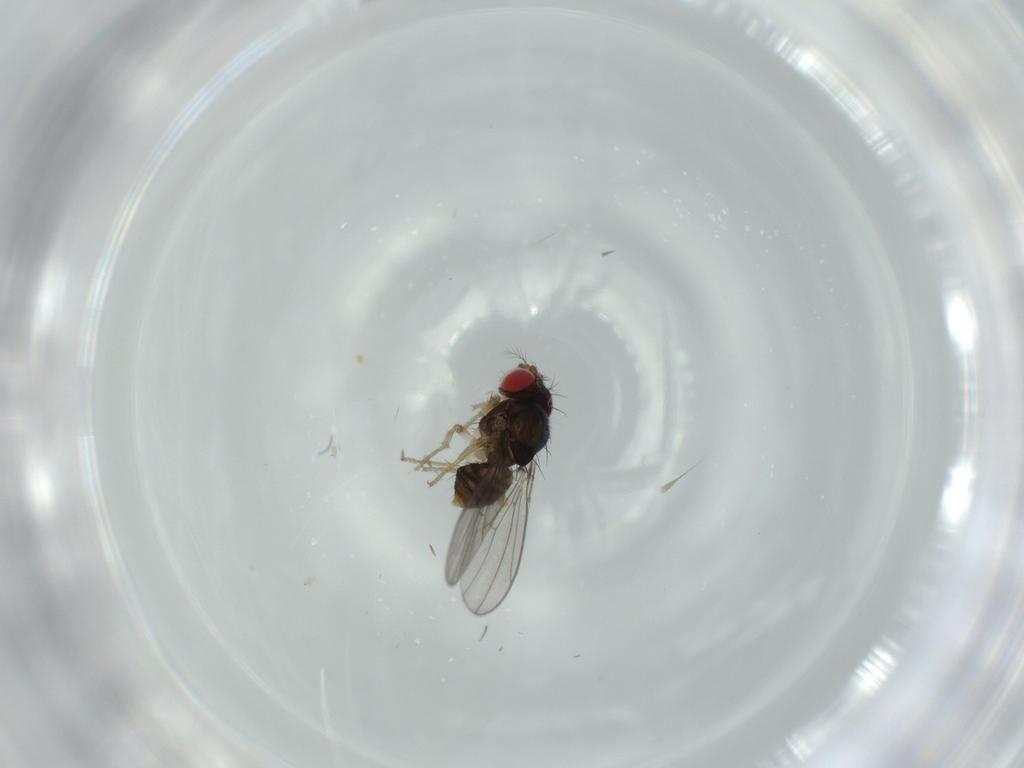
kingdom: Animalia
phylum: Arthropoda
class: Insecta
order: Diptera
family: Drosophilidae
